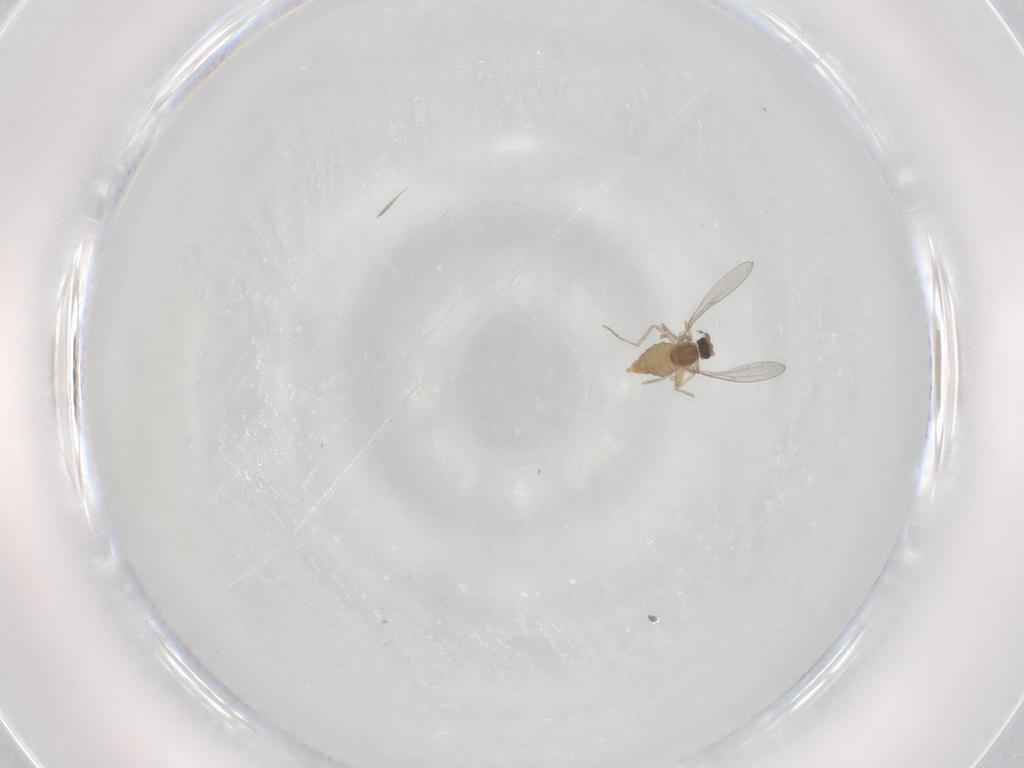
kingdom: Animalia
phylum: Arthropoda
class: Insecta
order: Diptera
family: Cecidomyiidae
